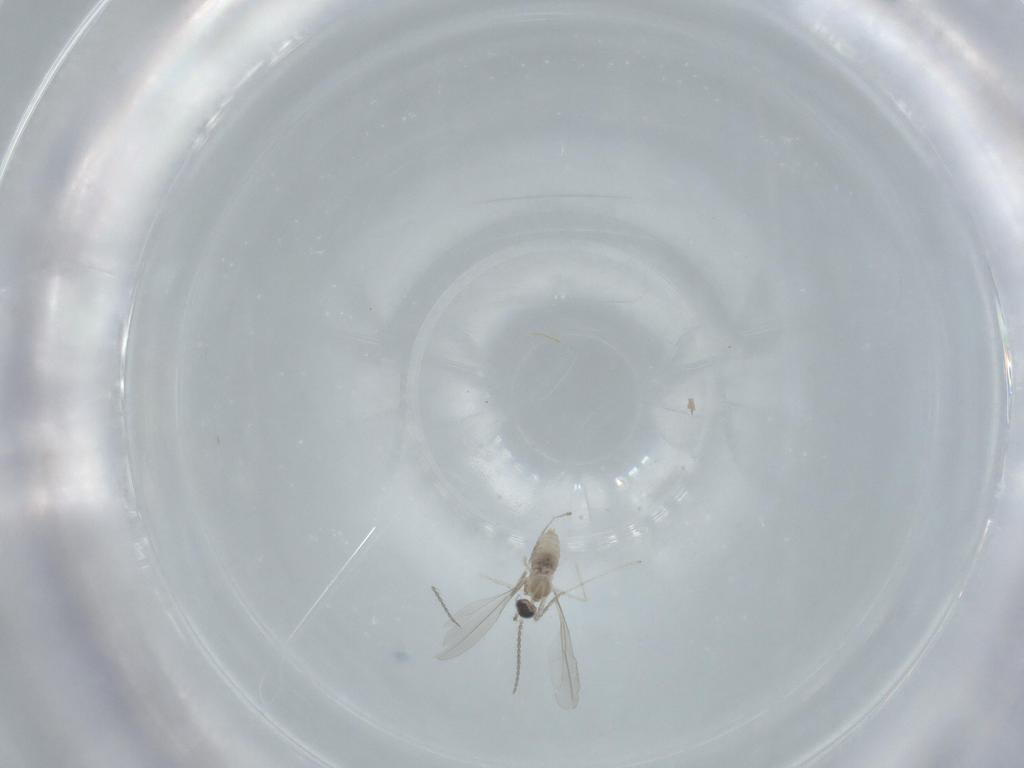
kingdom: Animalia
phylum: Arthropoda
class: Insecta
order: Diptera
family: Cecidomyiidae
